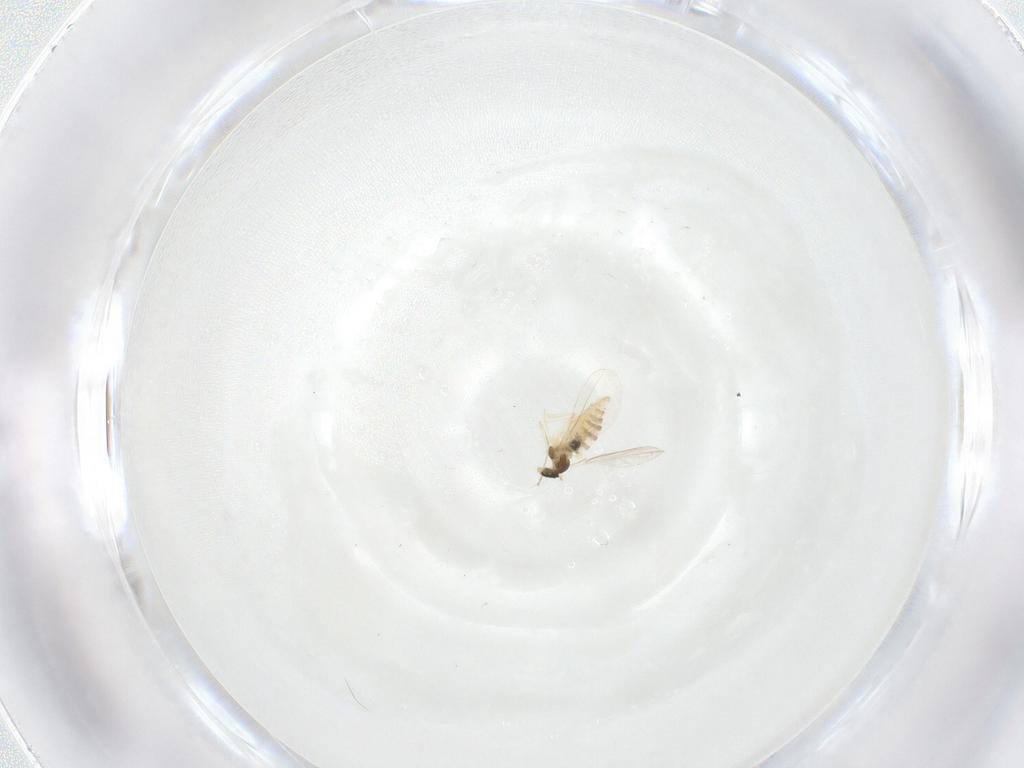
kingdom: Animalia
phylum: Arthropoda
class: Insecta
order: Diptera
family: Cecidomyiidae
